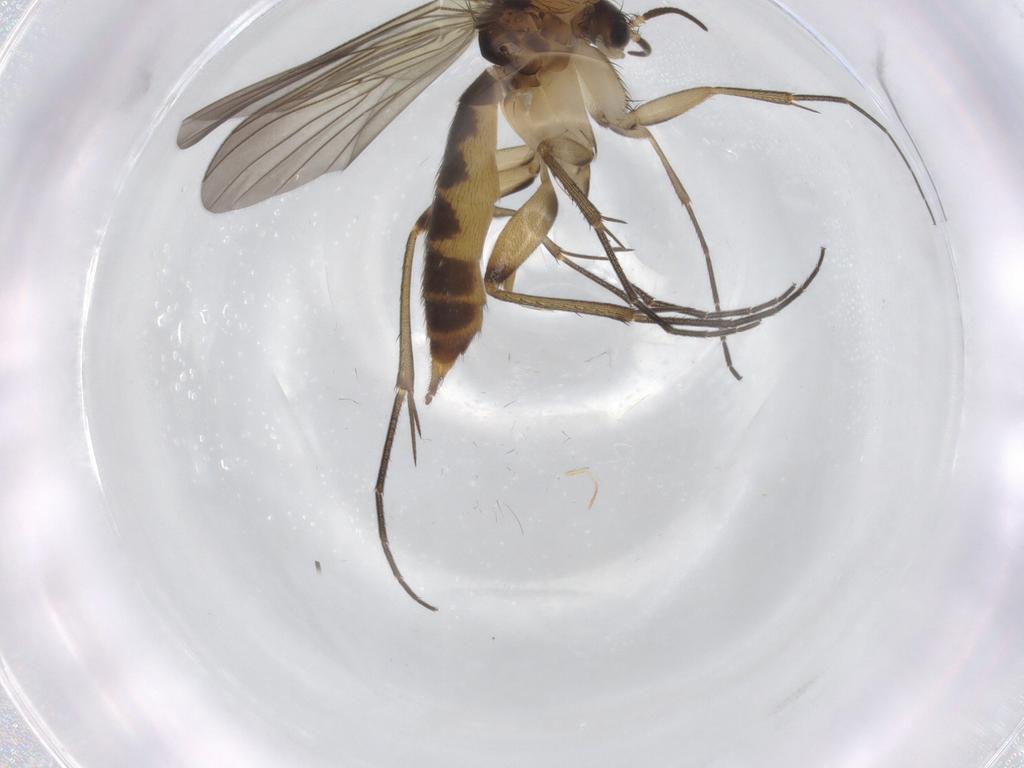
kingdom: Animalia
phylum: Arthropoda
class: Insecta
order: Diptera
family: Mycetophilidae
